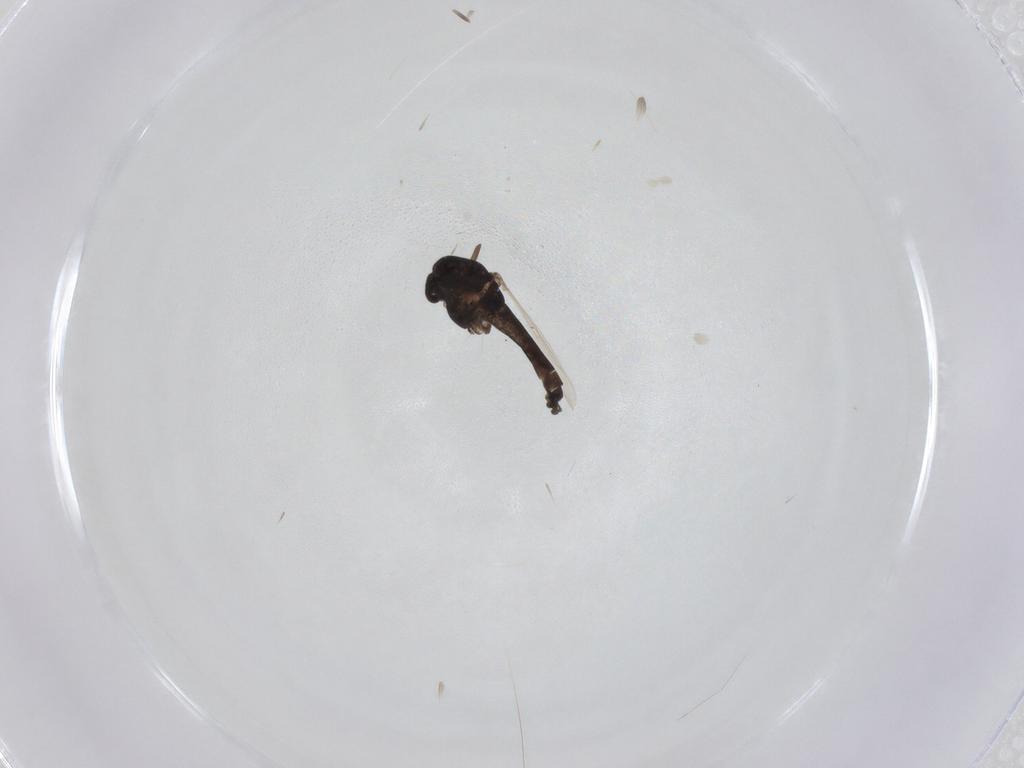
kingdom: Animalia
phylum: Arthropoda
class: Insecta
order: Diptera
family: Chironomidae
